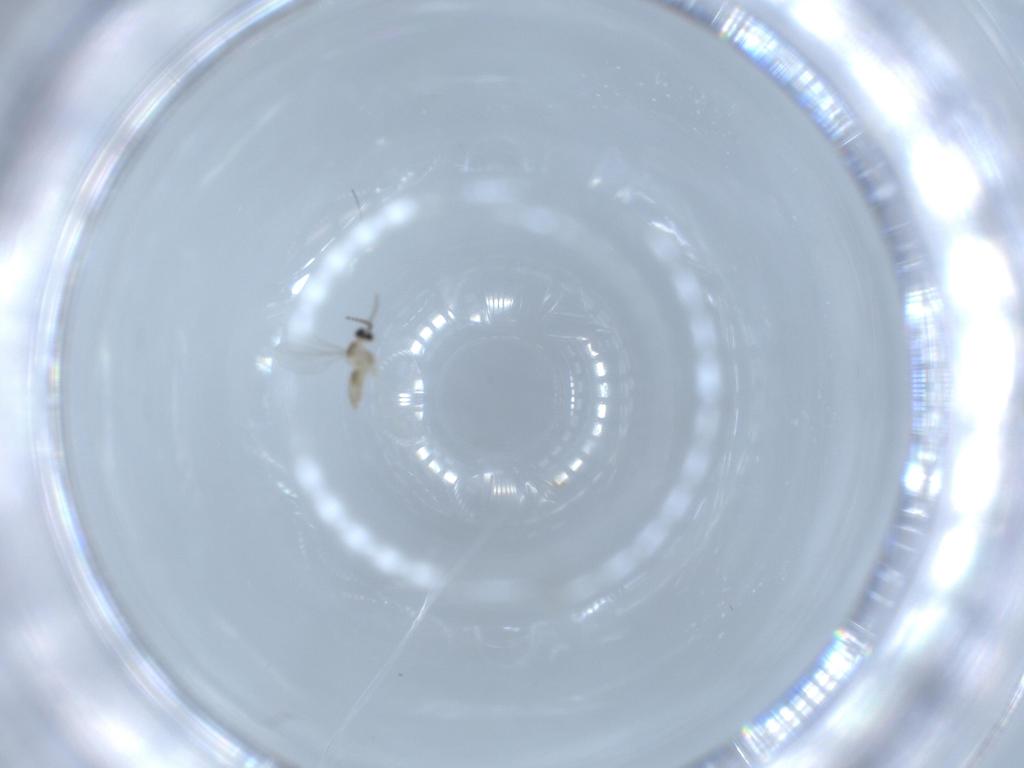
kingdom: Animalia
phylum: Arthropoda
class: Insecta
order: Diptera
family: Cecidomyiidae
